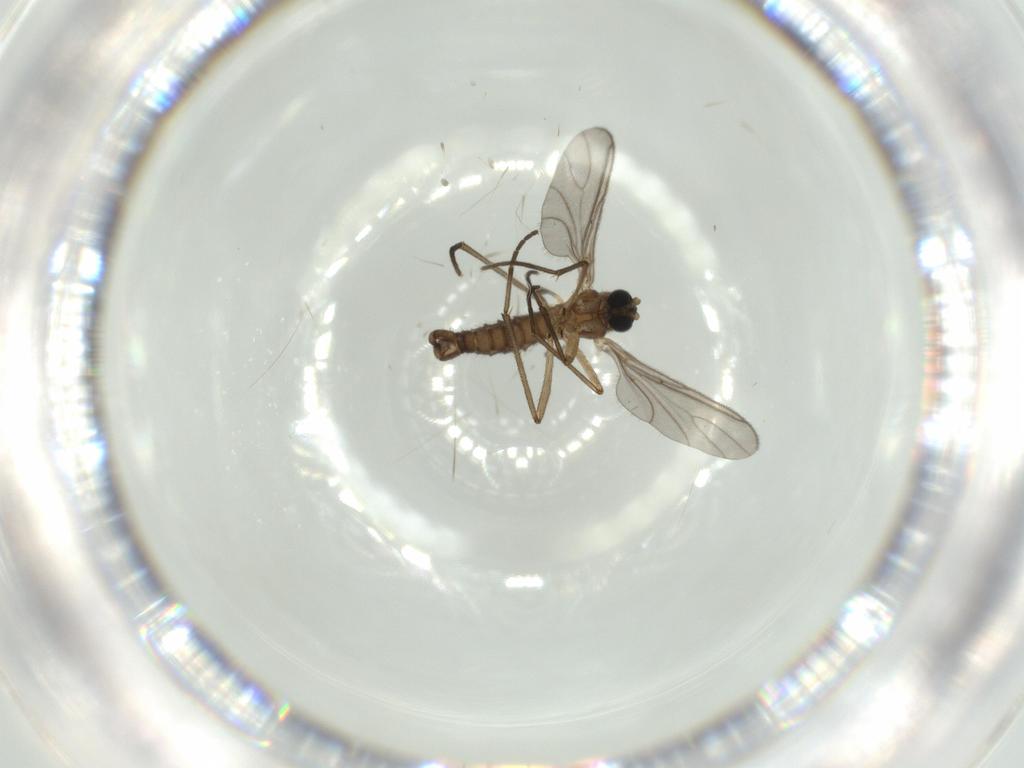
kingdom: Animalia
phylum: Arthropoda
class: Insecta
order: Diptera
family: Sciaridae
